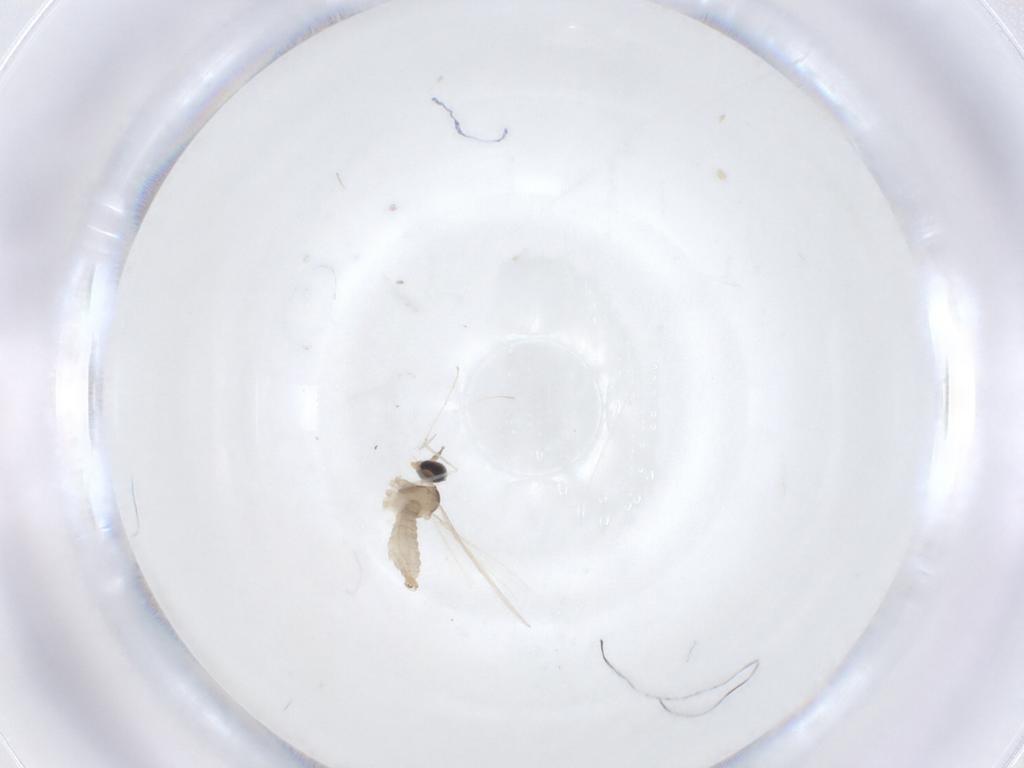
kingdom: Animalia
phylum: Arthropoda
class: Insecta
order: Diptera
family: Cecidomyiidae
